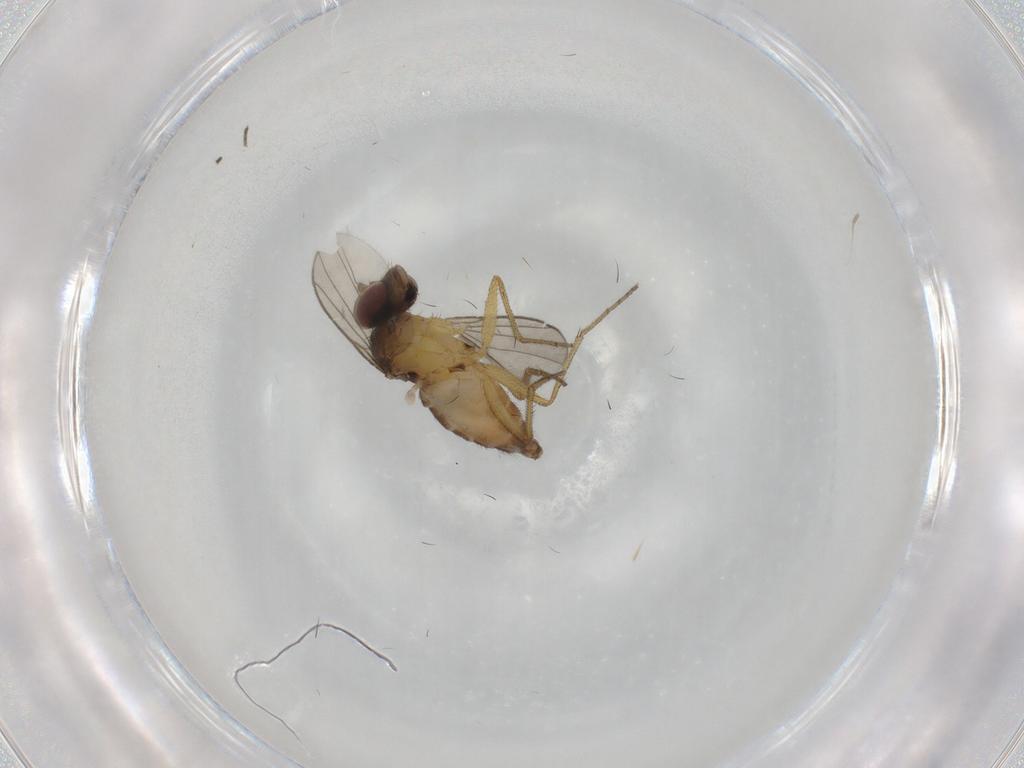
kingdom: Animalia
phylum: Arthropoda
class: Insecta
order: Diptera
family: Dolichopodidae
